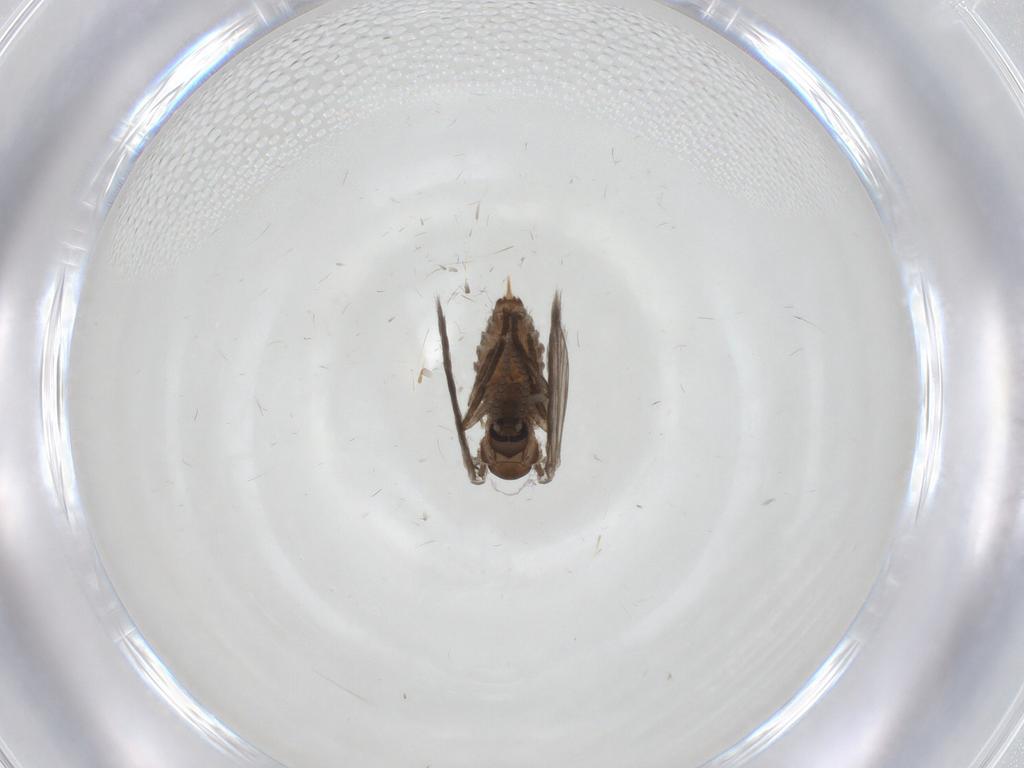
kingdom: Animalia
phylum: Arthropoda
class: Insecta
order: Diptera
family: Syrphidae
